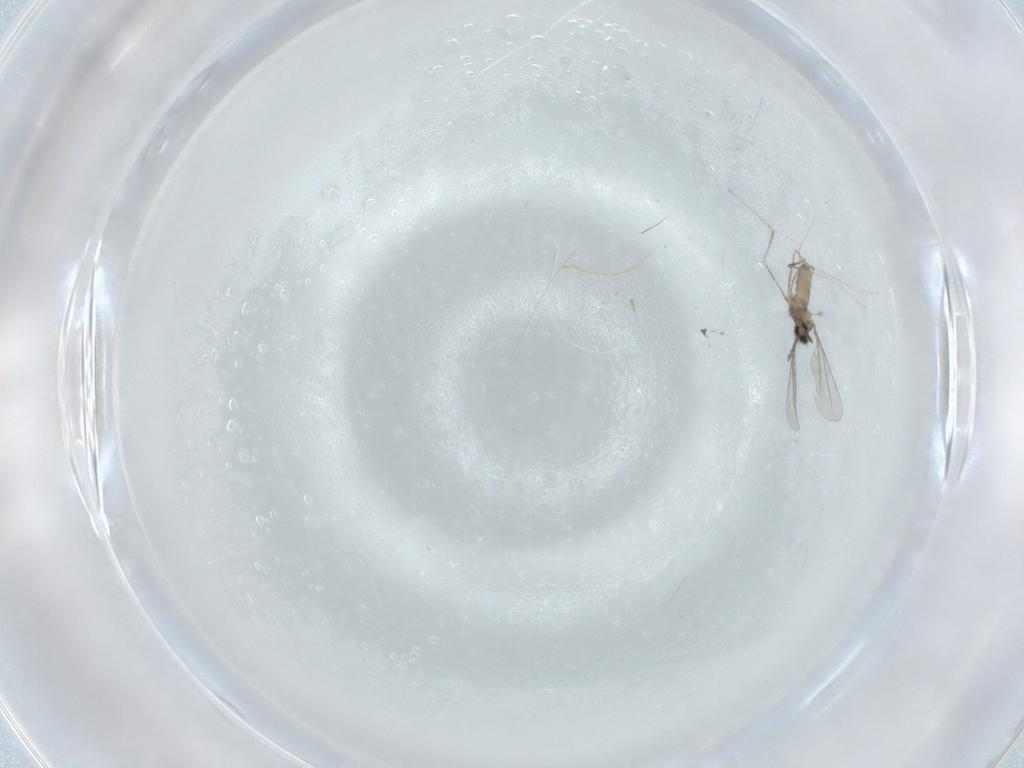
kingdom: Animalia
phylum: Arthropoda
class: Insecta
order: Diptera
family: Cecidomyiidae
